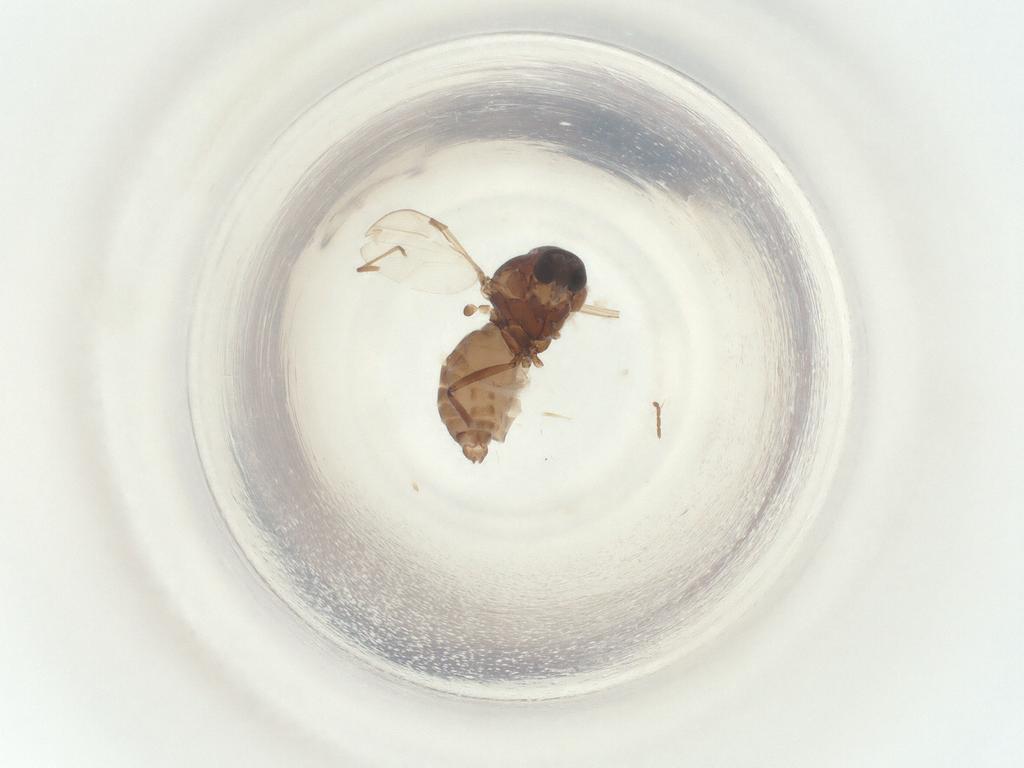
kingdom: Animalia
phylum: Arthropoda
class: Insecta
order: Diptera
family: Ceratopogonidae
